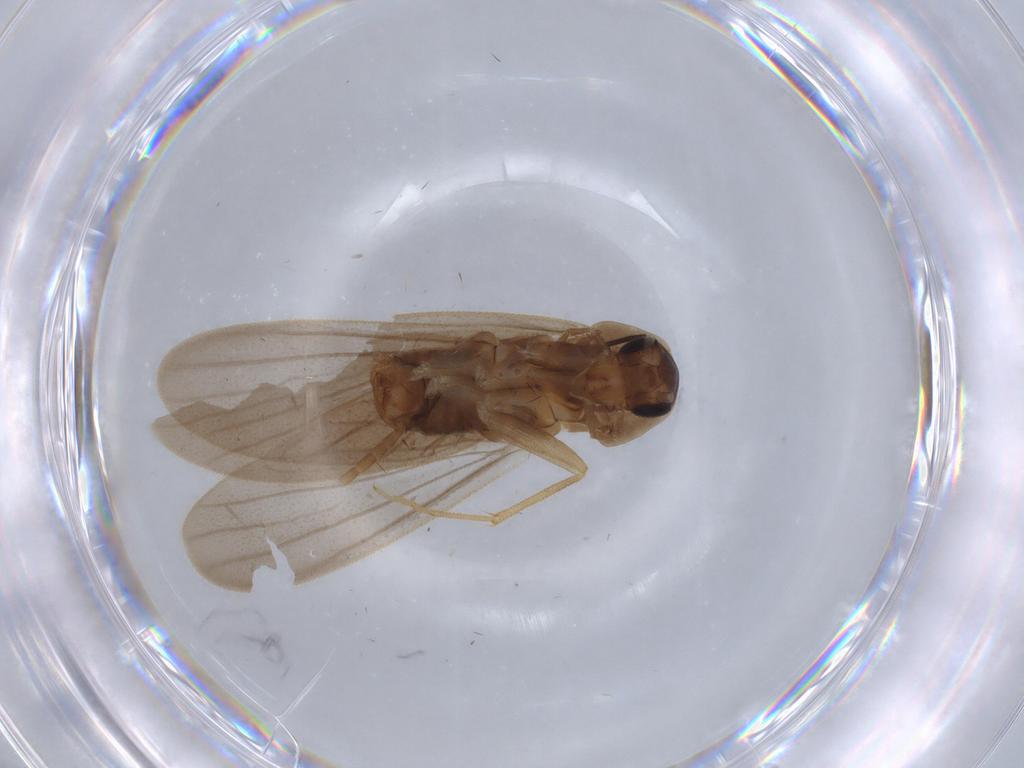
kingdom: Animalia
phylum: Arthropoda
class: Insecta
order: Blattodea
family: Nocticolidae
